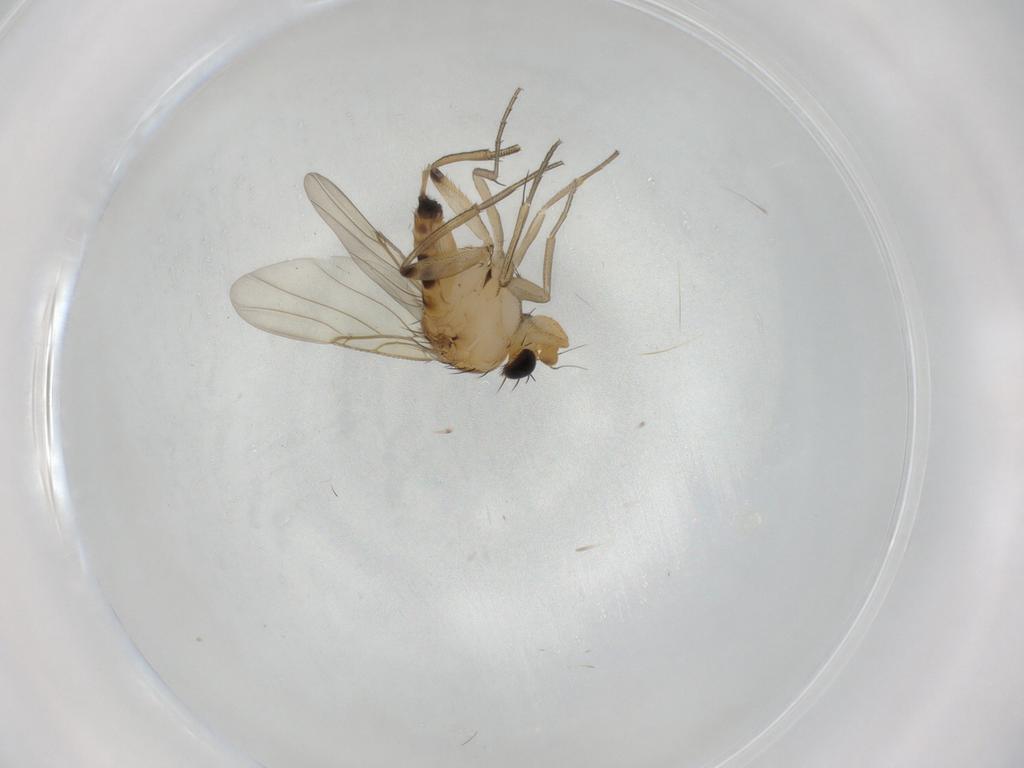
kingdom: Animalia
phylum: Arthropoda
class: Insecta
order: Diptera
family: Phoridae
